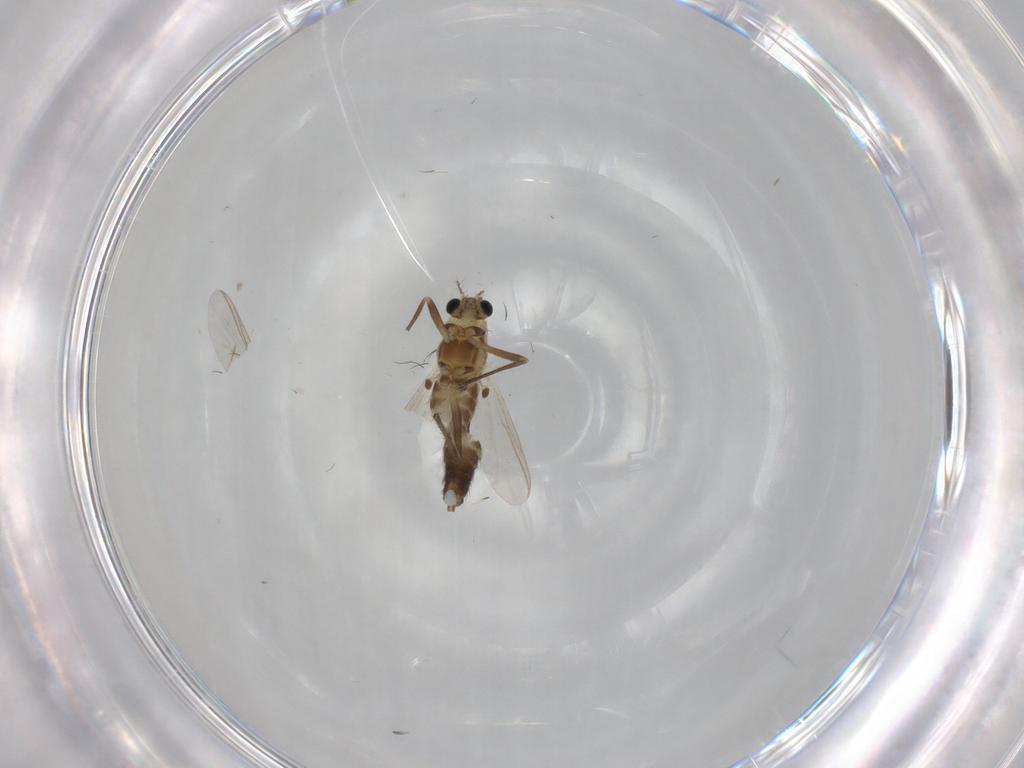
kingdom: Animalia
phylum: Arthropoda
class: Insecta
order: Diptera
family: Chironomidae
